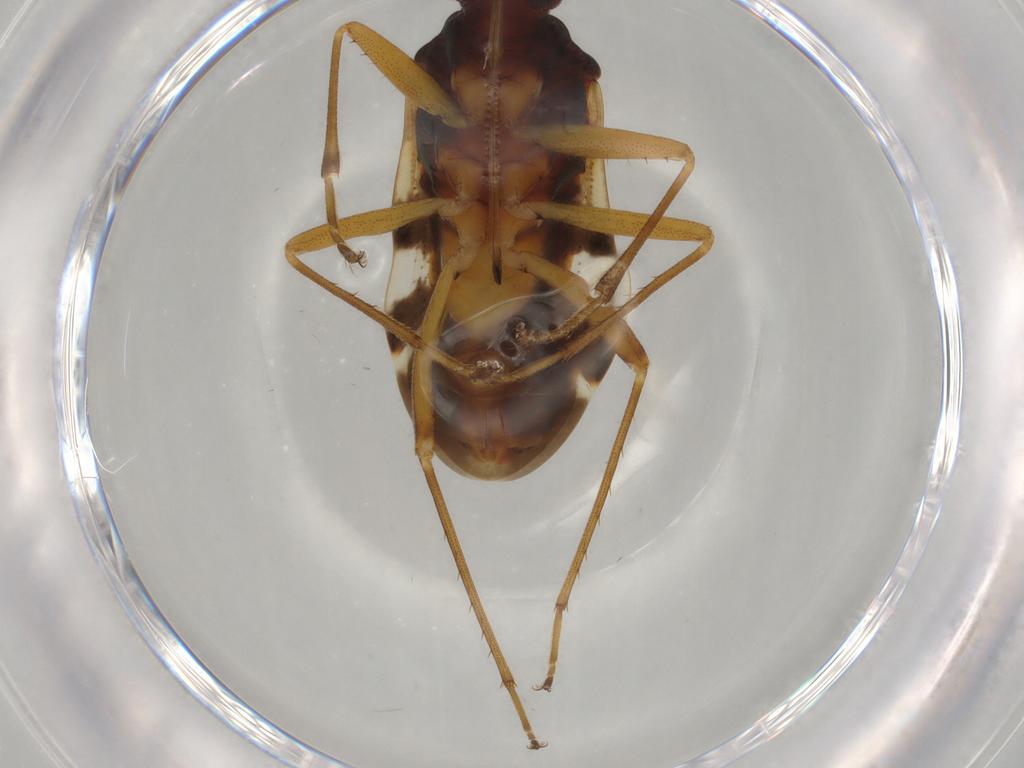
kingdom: Animalia
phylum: Arthropoda
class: Insecta
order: Hemiptera
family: Rhyparochromidae
